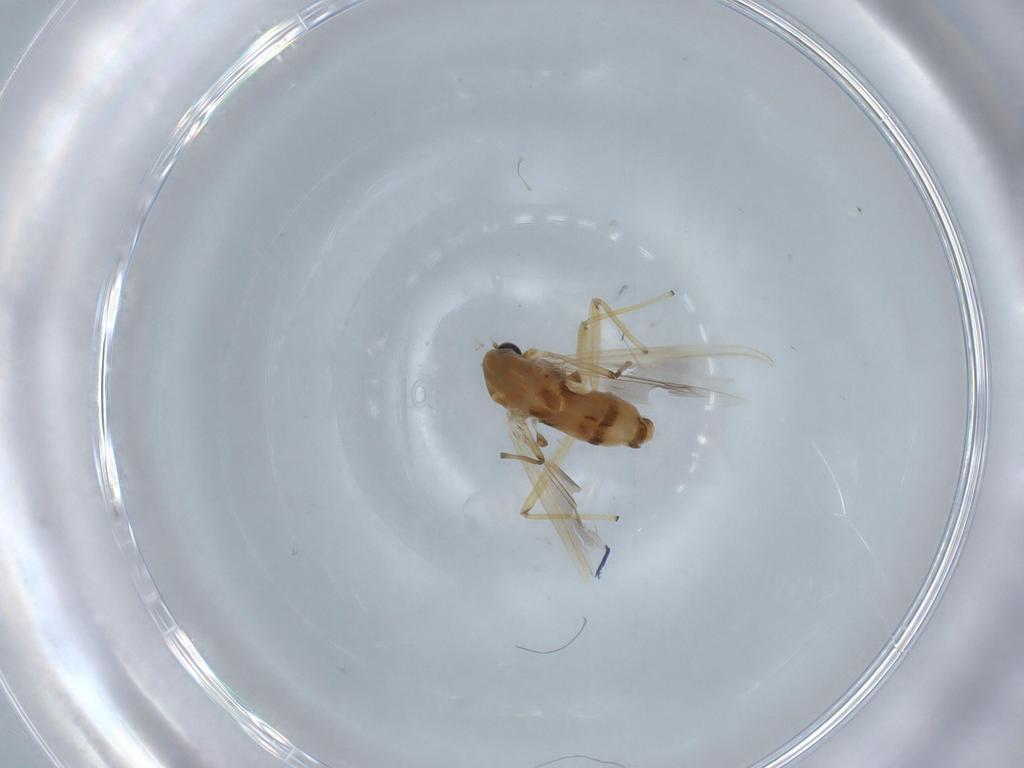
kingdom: Animalia
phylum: Arthropoda
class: Insecta
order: Diptera
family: Chironomidae
